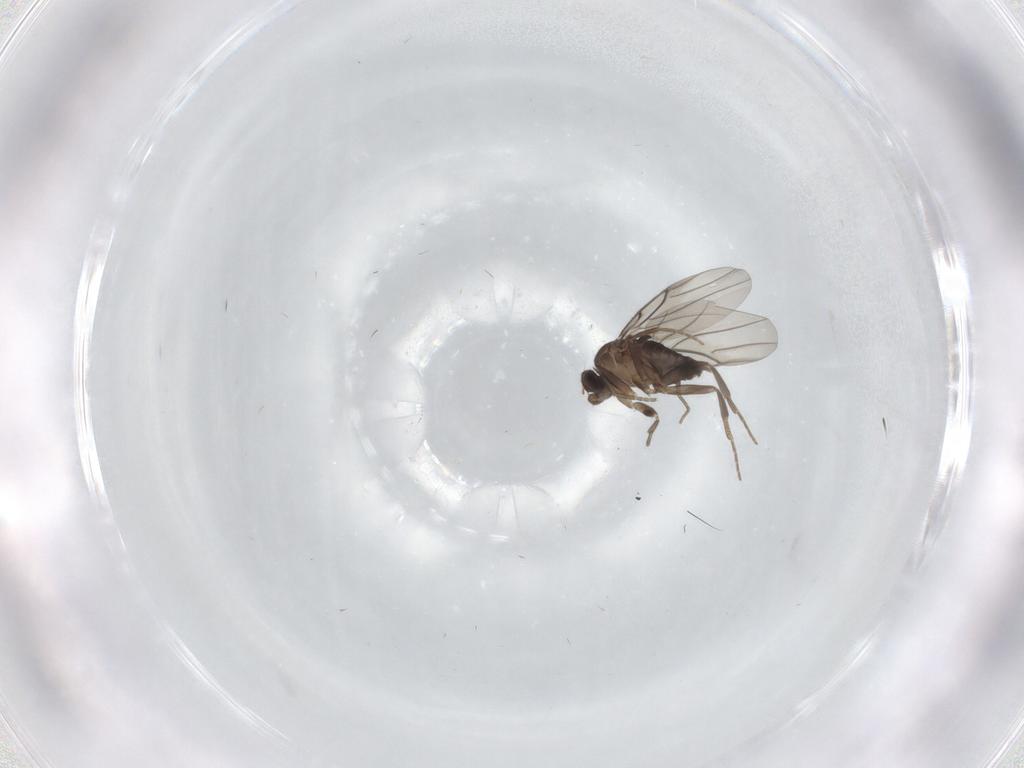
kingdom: Animalia
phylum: Arthropoda
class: Insecta
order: Diptera
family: Phoridae
